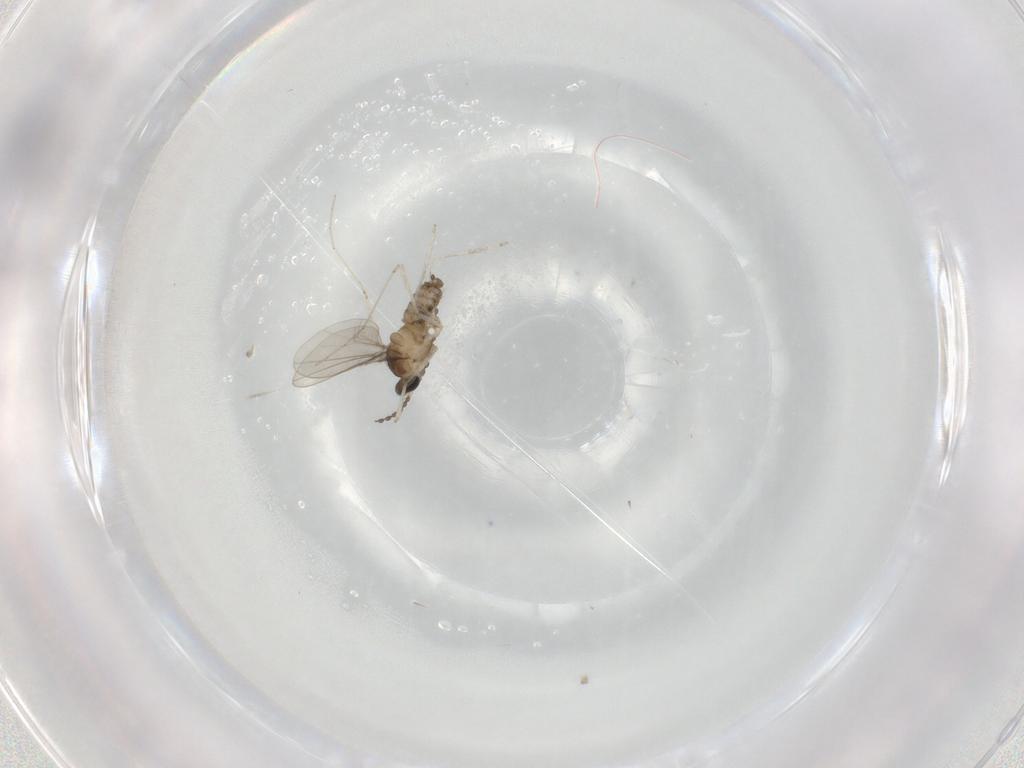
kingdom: Animalia
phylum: Arthropoda
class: Insecta
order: Diptera
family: Cecidomyiidae
